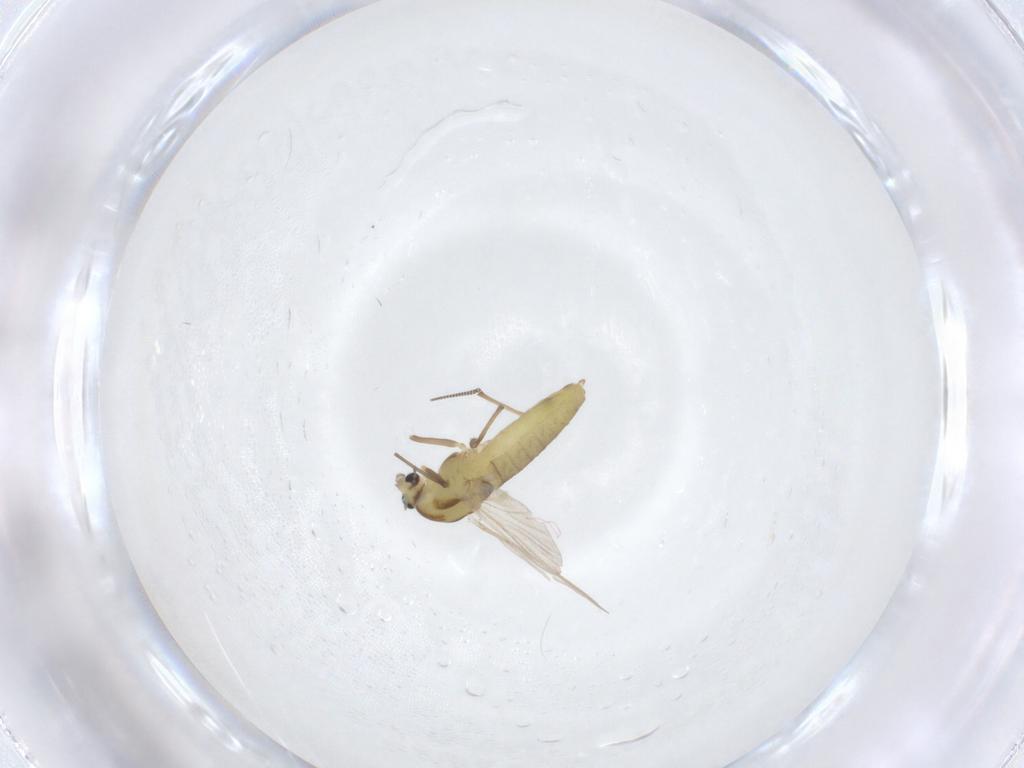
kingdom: Animalia
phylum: Arthropoda
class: Insecta
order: Diptera
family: Chironomidae
